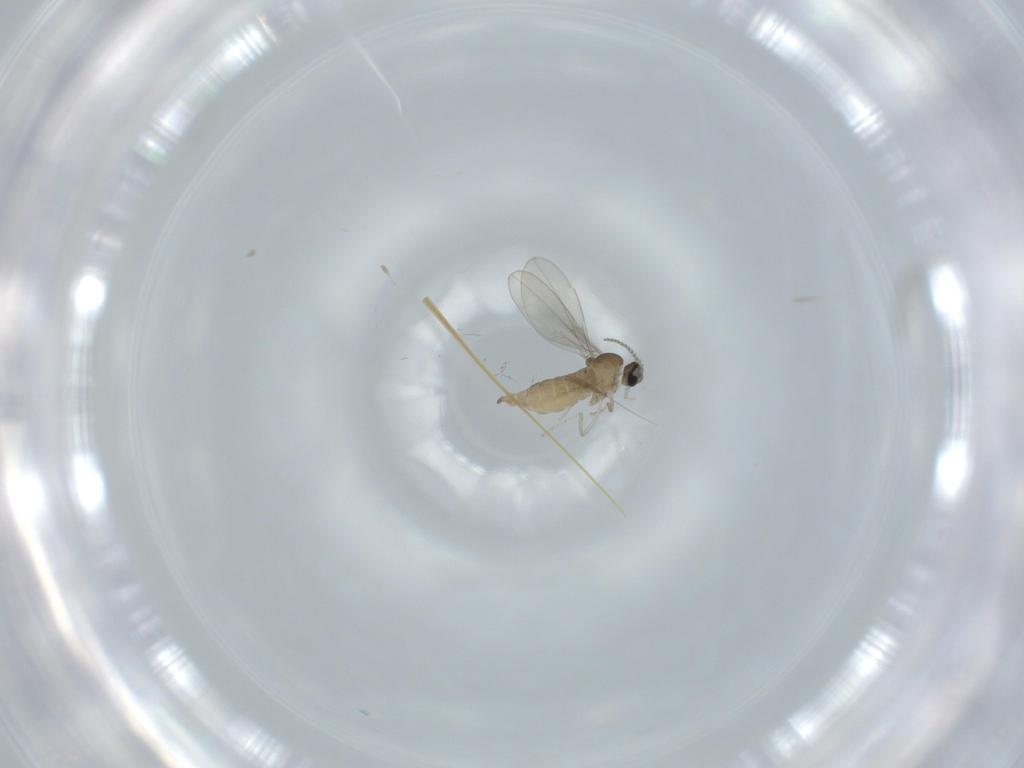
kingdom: Animalia
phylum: Arthropoda
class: Insecta
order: Diptera
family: Cecidomyiidae
